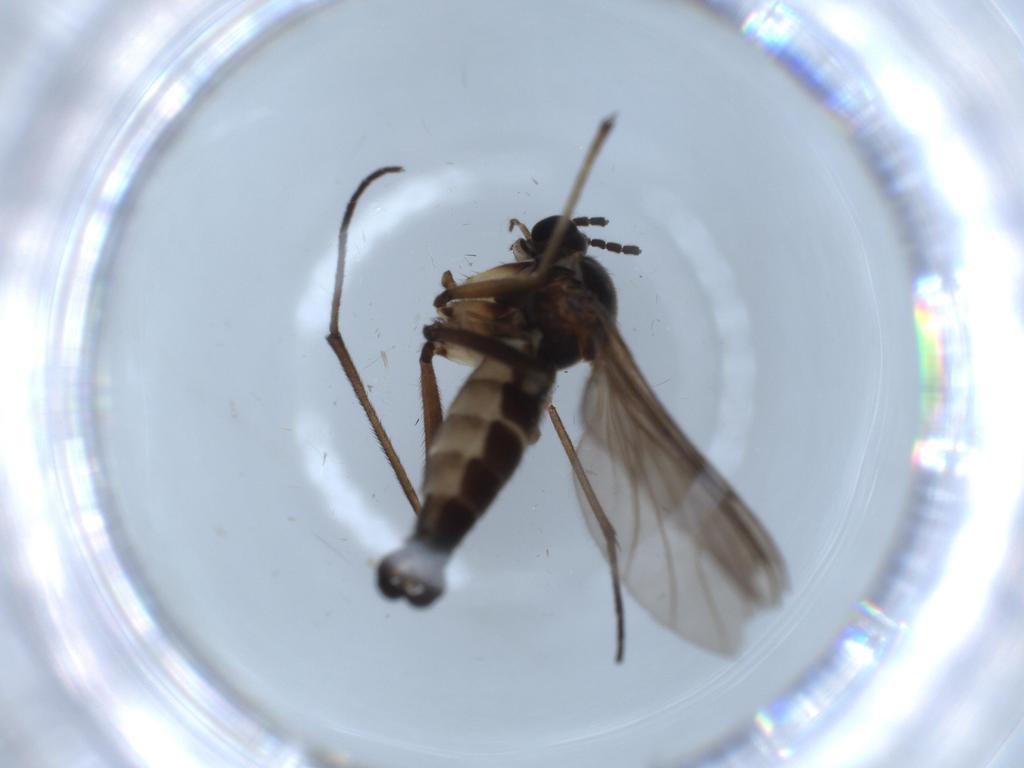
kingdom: Animalia
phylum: Arthropoda
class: Insecta
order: Diptera
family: Sciaridae
